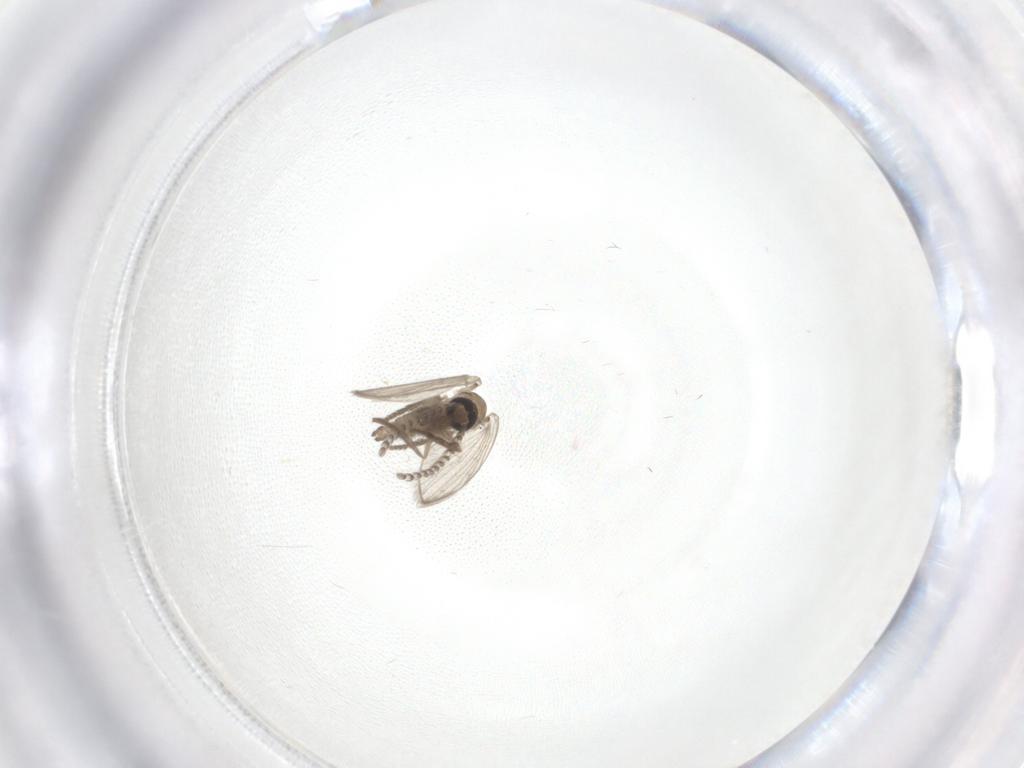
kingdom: Animalia
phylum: Arthropoda
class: Insecta
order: Diptera
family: Psychodidae
